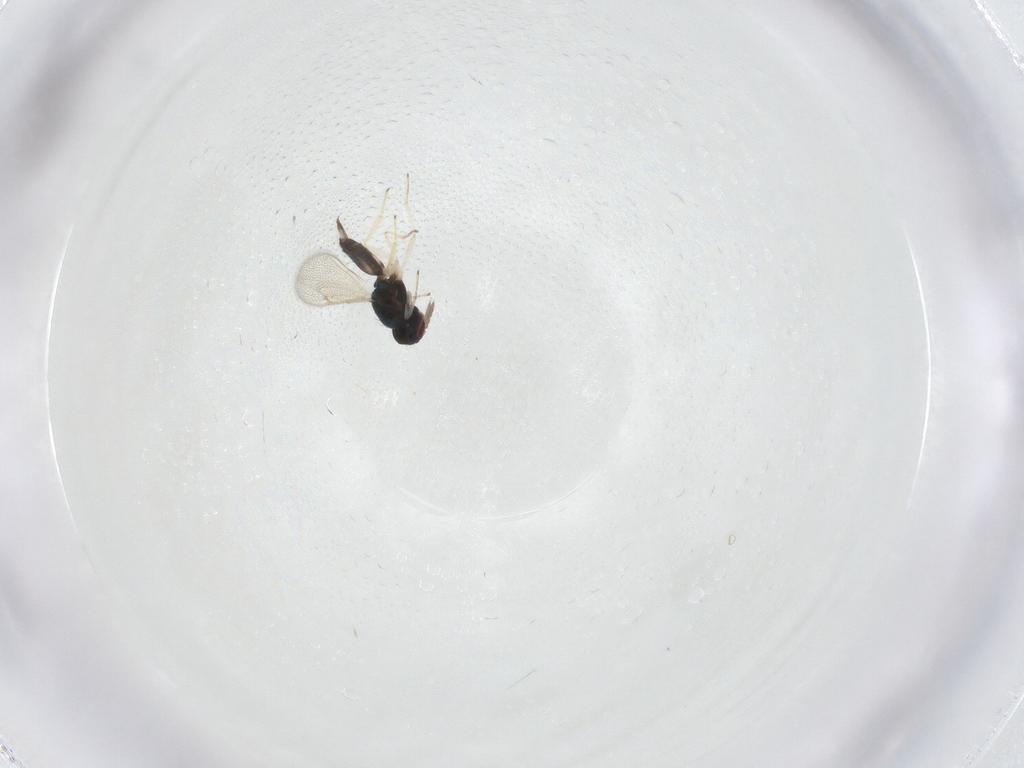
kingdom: Animalia
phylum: Arthropoda
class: Insecta
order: Hymenoptera
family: Eulophidae
